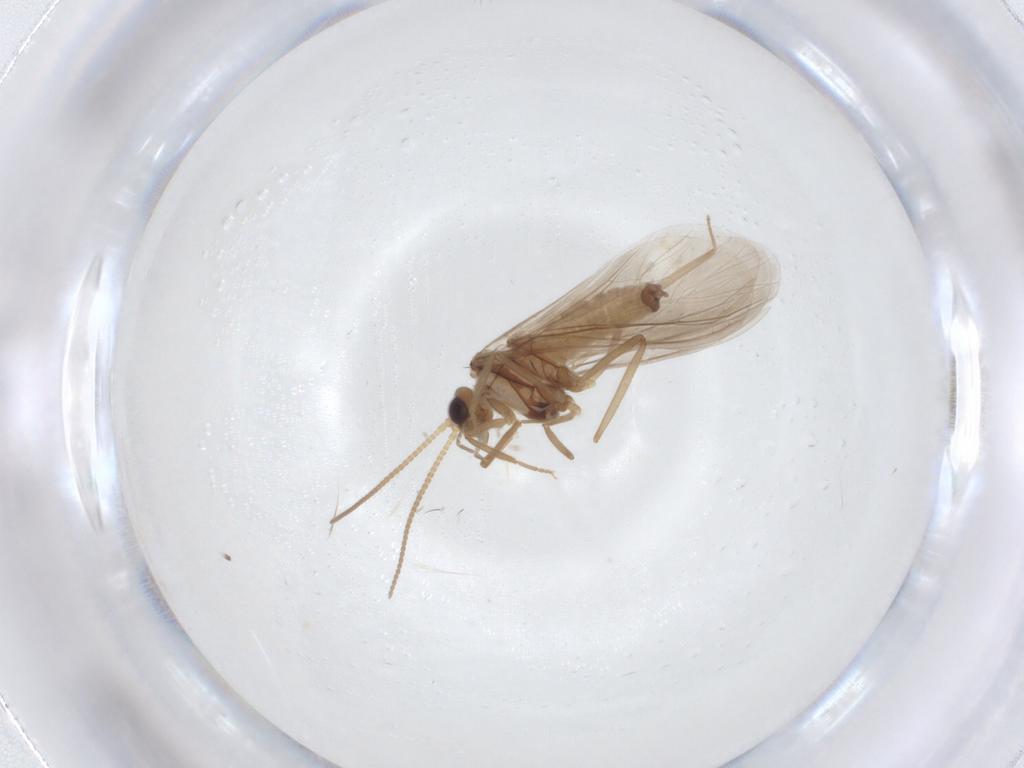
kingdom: Animalia
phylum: Arthropoda
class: Insecta
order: Neuroptera
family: Coniopterygidae
